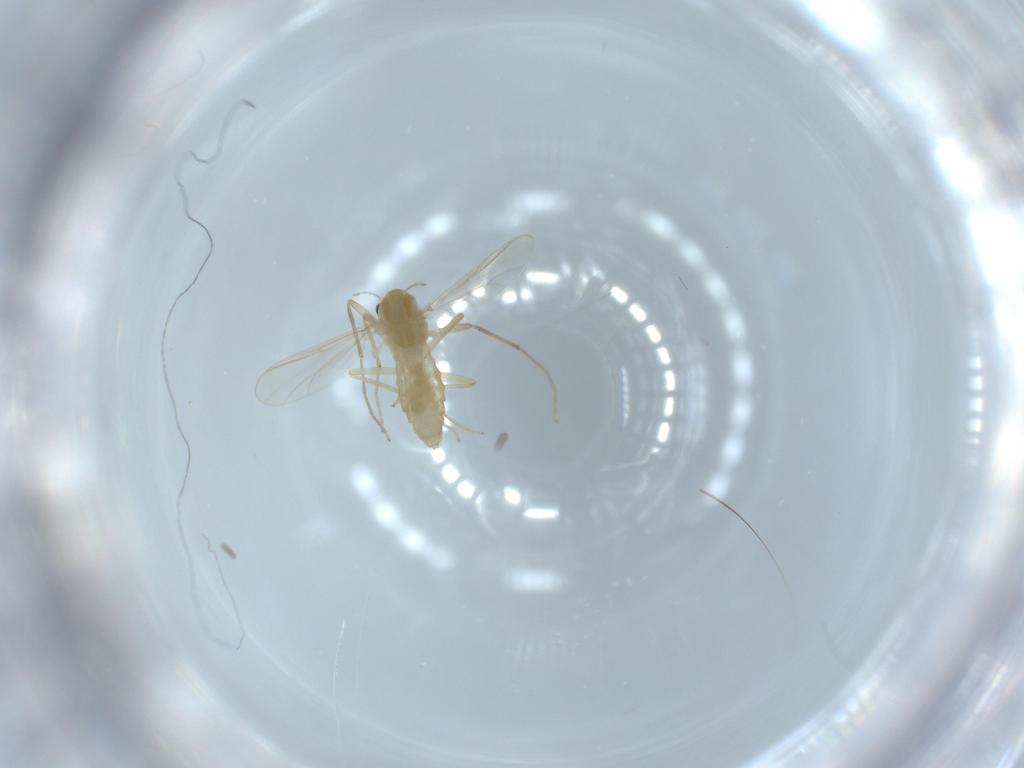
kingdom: Animalia
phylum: Arthropoda
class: Insecta
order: Diptera
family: Chironomidae
